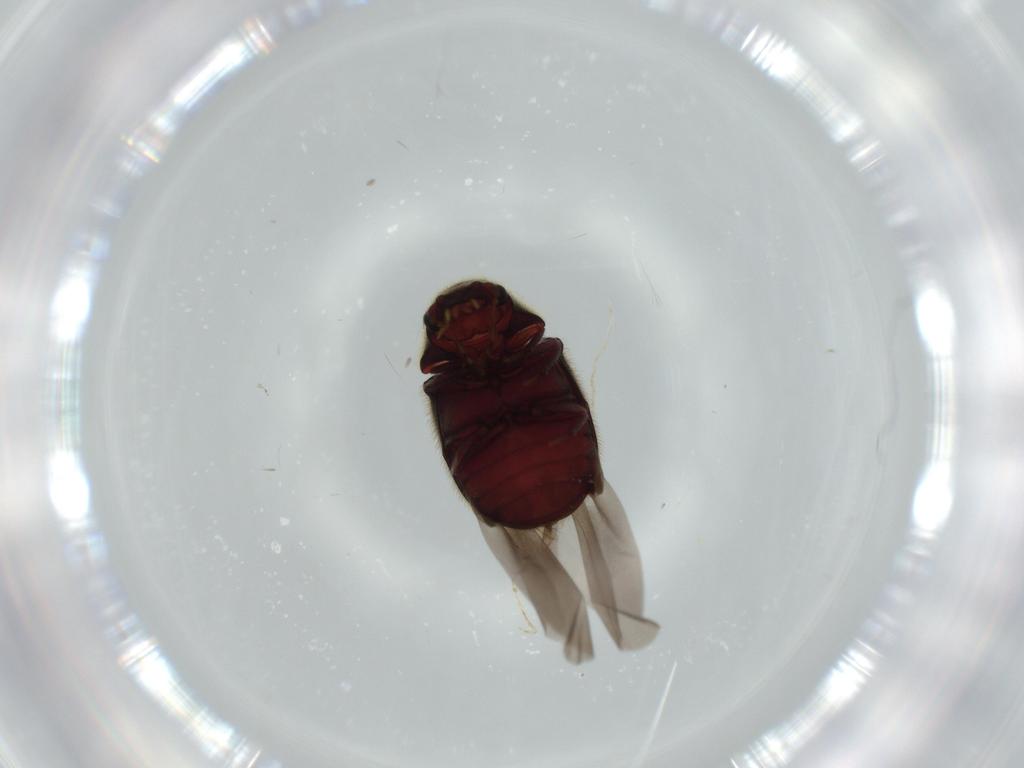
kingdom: Animalia
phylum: Arthropoda
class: Insecta
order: Coleoptera
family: Ptinidae
